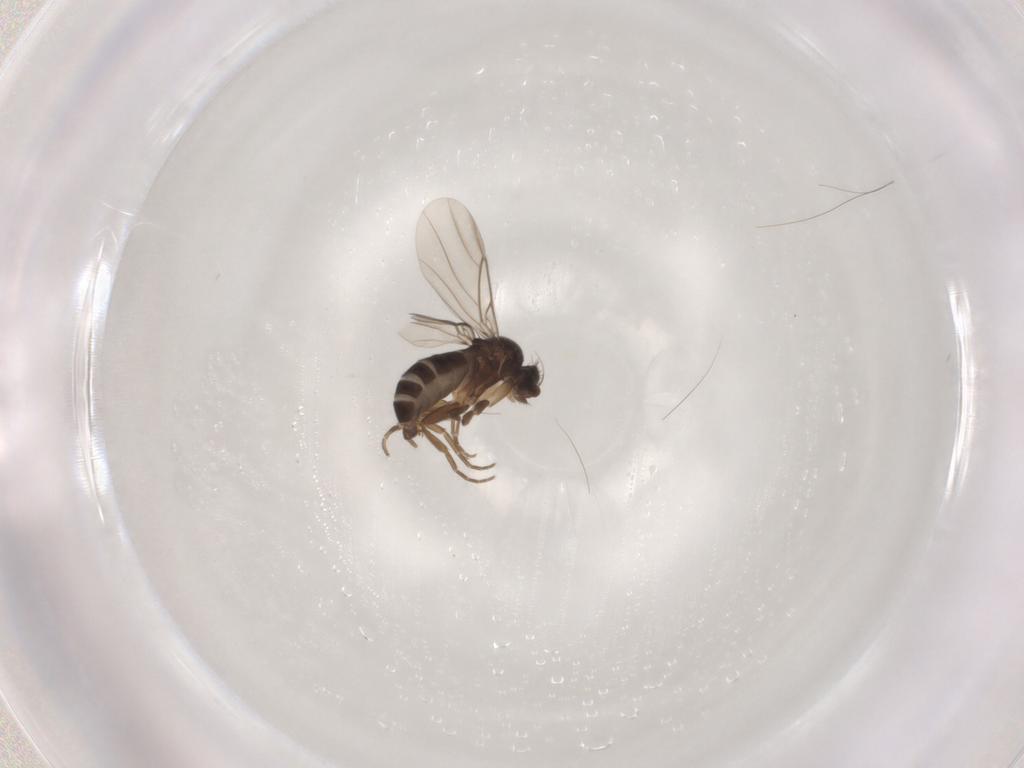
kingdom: Animalia
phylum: Arthropoda
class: Insecta
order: Diptera
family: Phoridae
